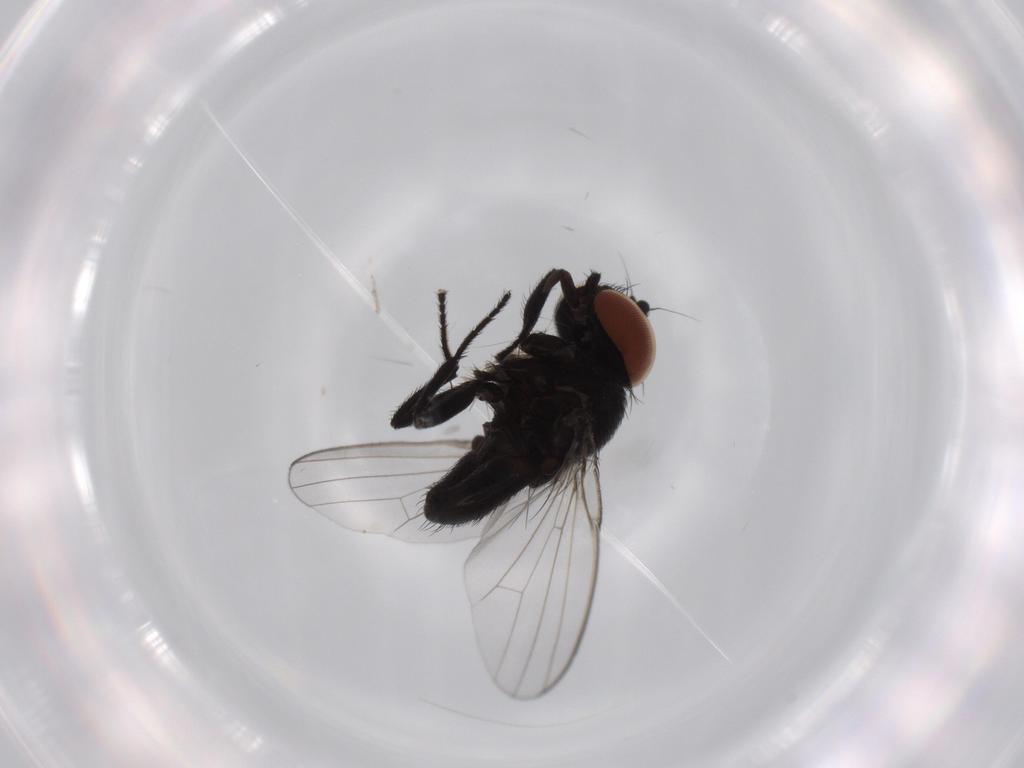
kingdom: Animalia
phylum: Arthropoda
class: Insecta
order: Diptera
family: Milichiidae
